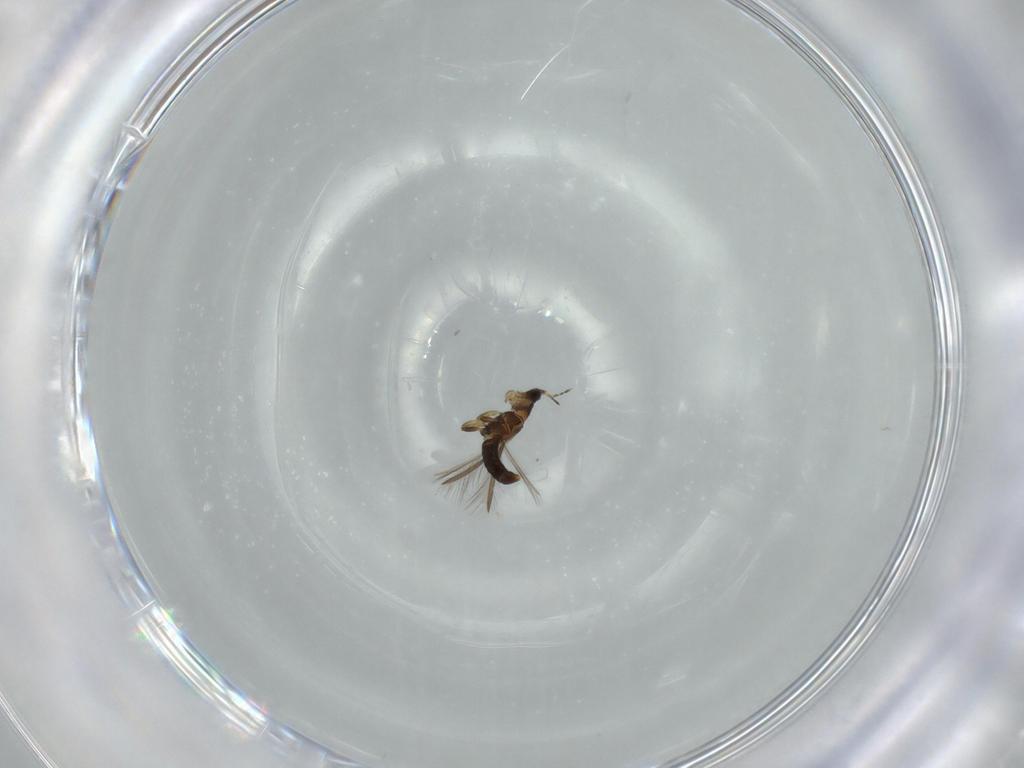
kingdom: Animalia
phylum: Arthropoda
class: Insecta
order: Thysanoptera
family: Thripidae
